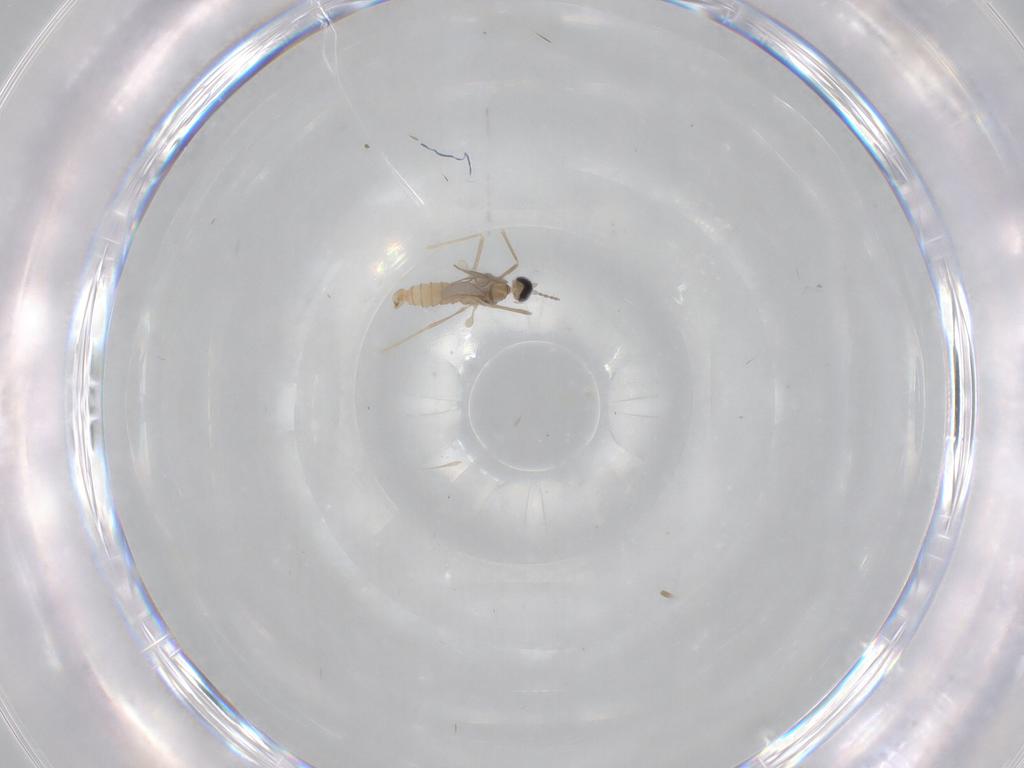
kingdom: Animalia
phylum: Arthropoda
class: Insecta
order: Diptera
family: Cecidomyiidae
